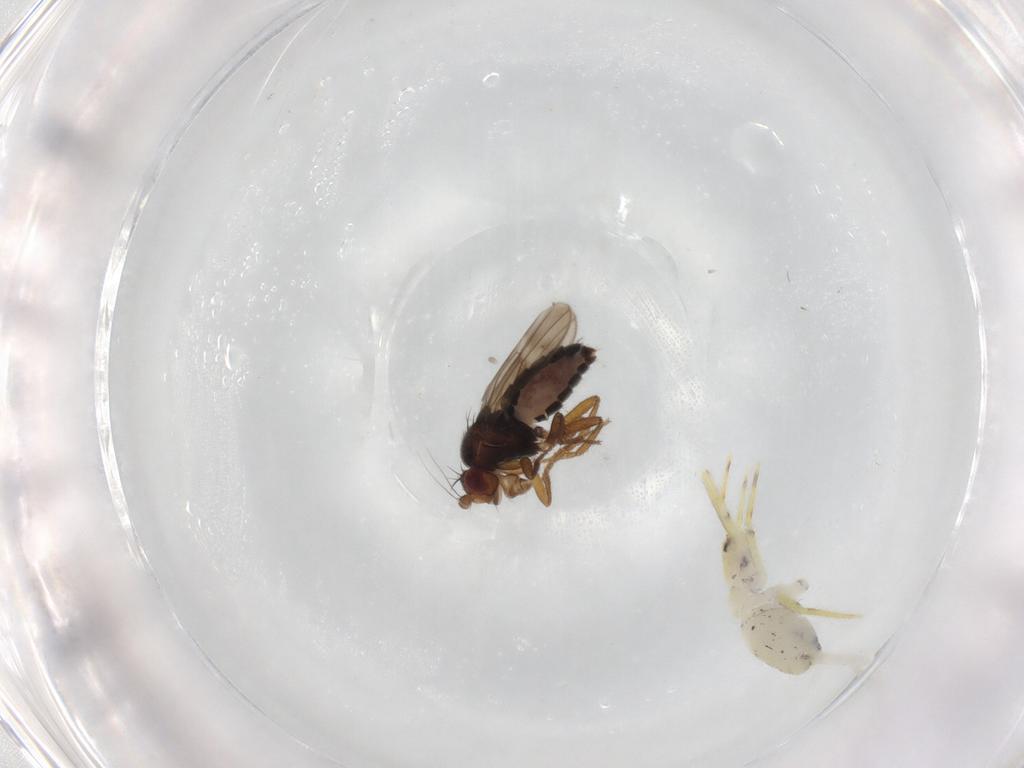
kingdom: Animalia
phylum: Arthropoda
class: Insecta
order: Diptera
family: Sphaeroceridae
